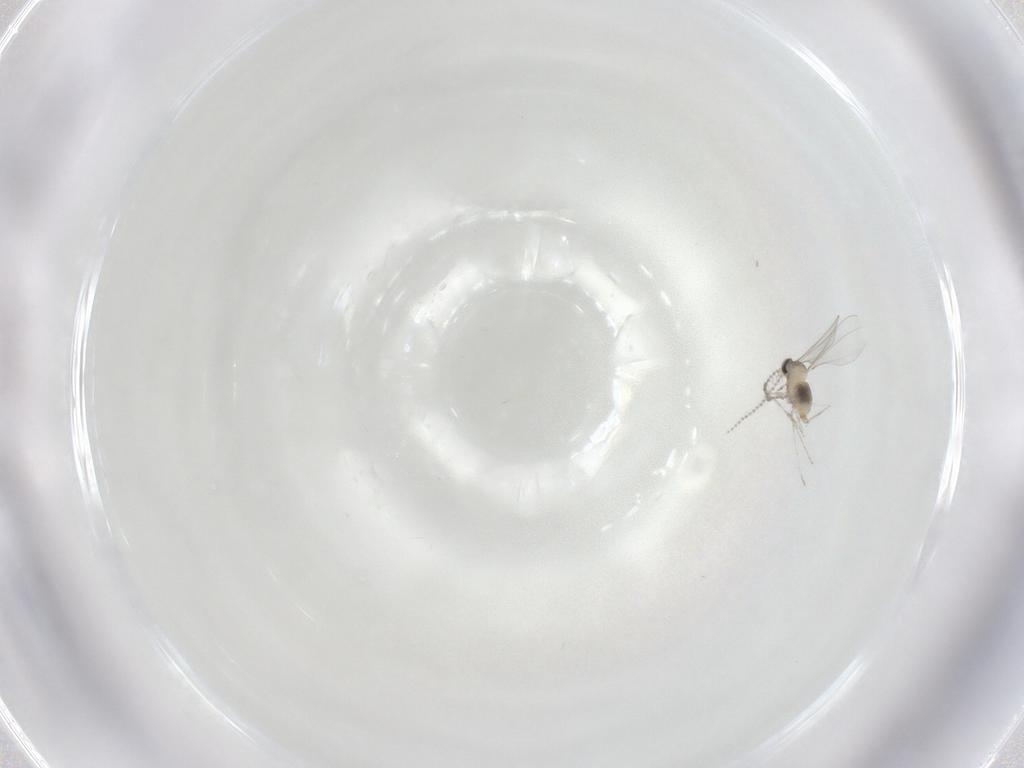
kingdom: Animalia
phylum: Arthropoda
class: Insecta
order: Diptera
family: Cecidomyiidae
